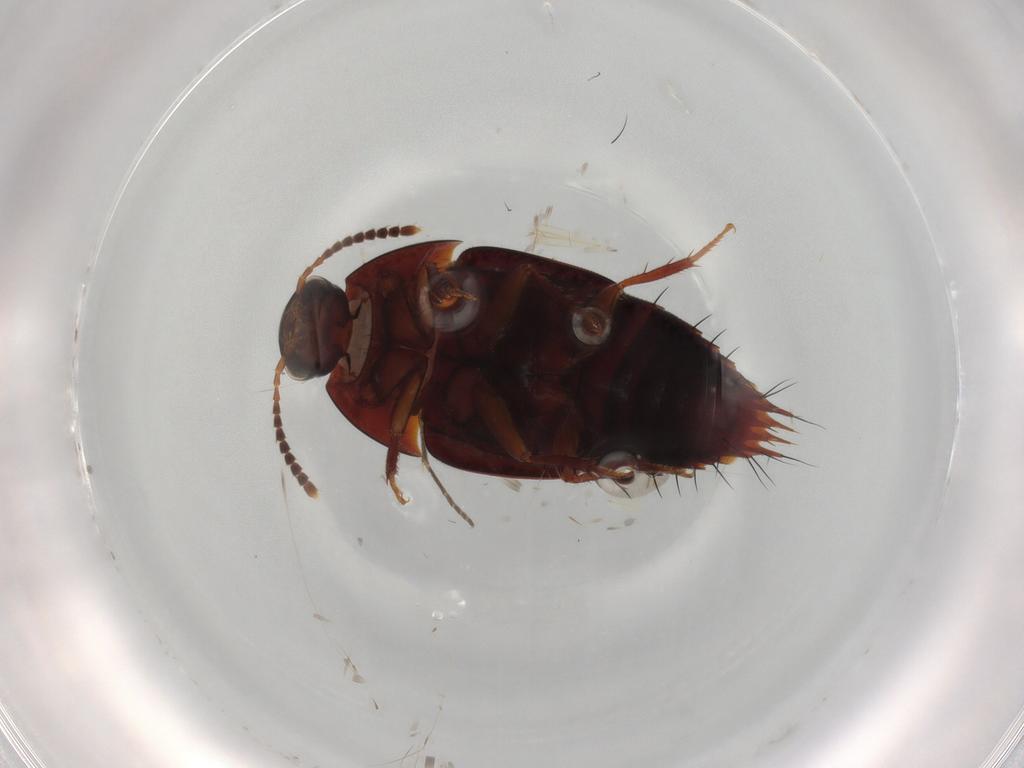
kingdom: Animalia
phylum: Arthropoda
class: Insecta
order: Coleoptera
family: Staphylinidae
